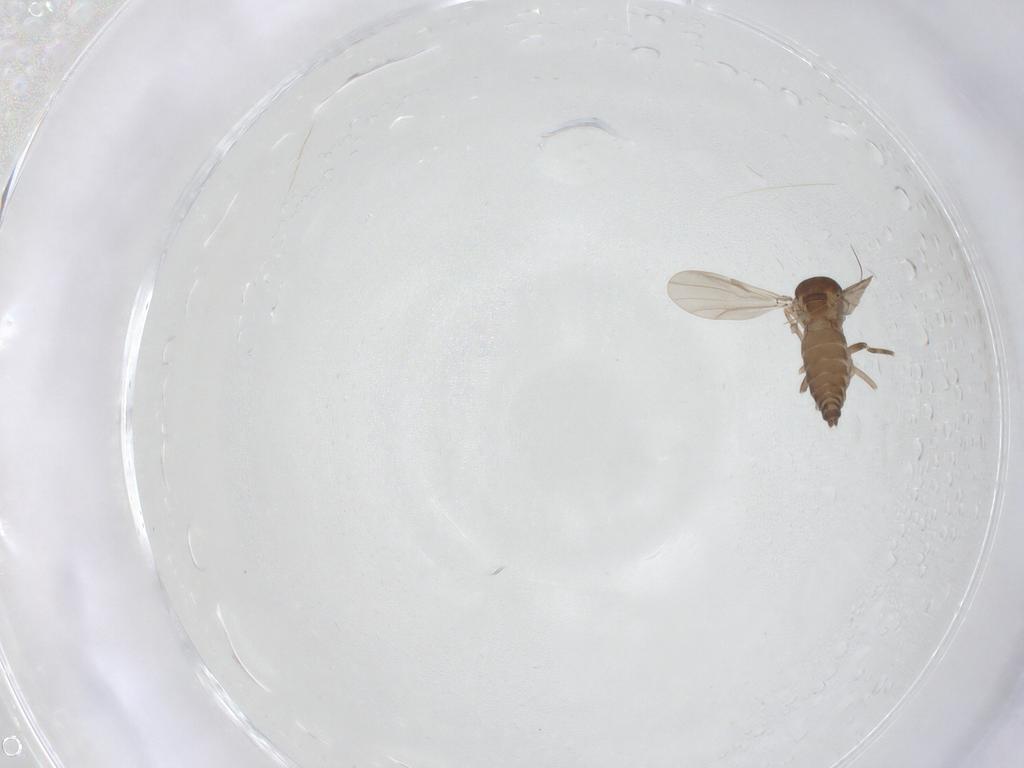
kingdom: Animalia
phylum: Arthropoda
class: Insecta
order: Diptera
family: Ceratopogonidae
